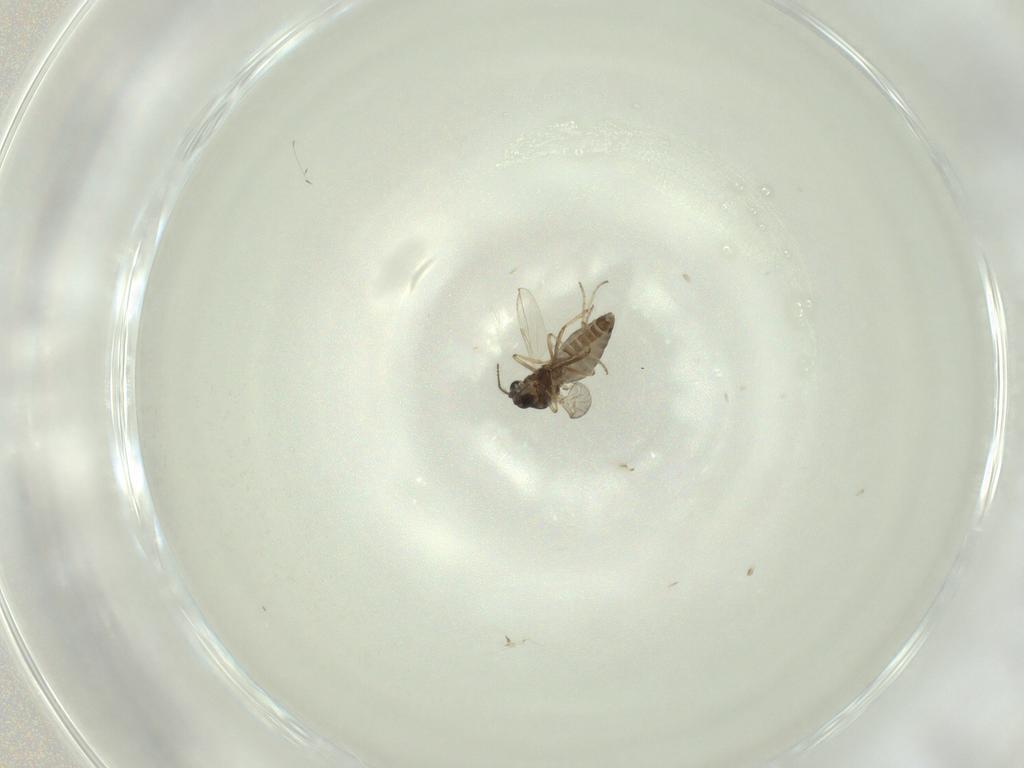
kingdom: Animalia
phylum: Arthropoda
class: Insecta
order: Diptera
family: Ceratopogonidae
